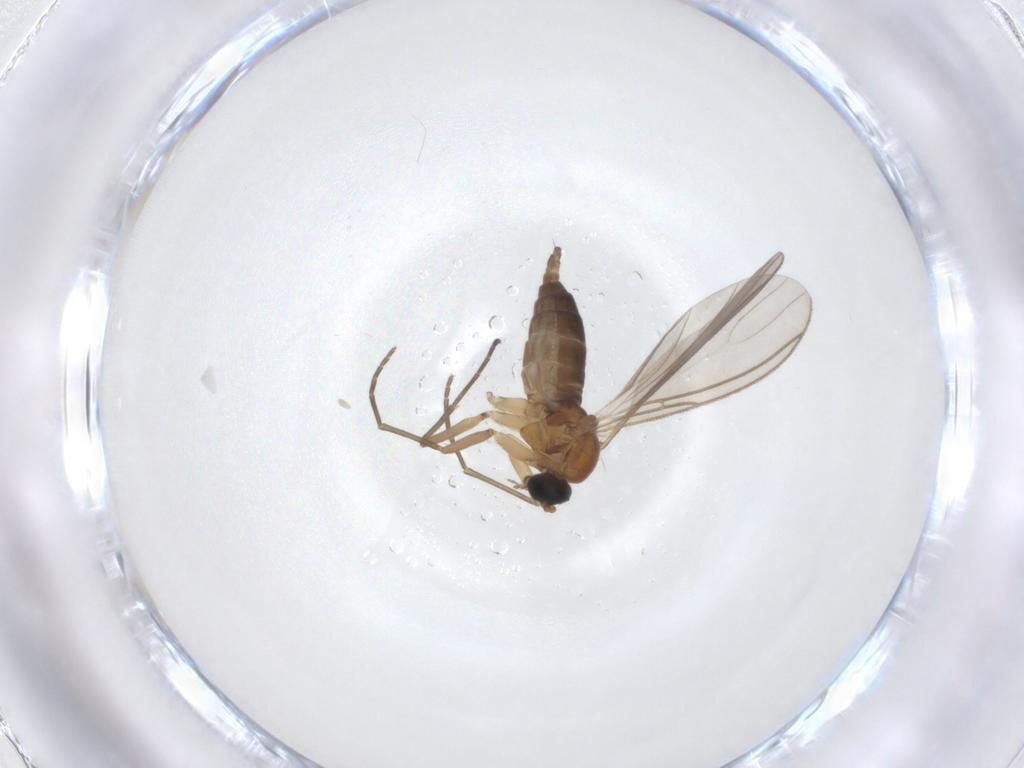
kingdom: Animalia
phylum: Arthropoda
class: Insecta
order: Diptera
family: Sciaridae
